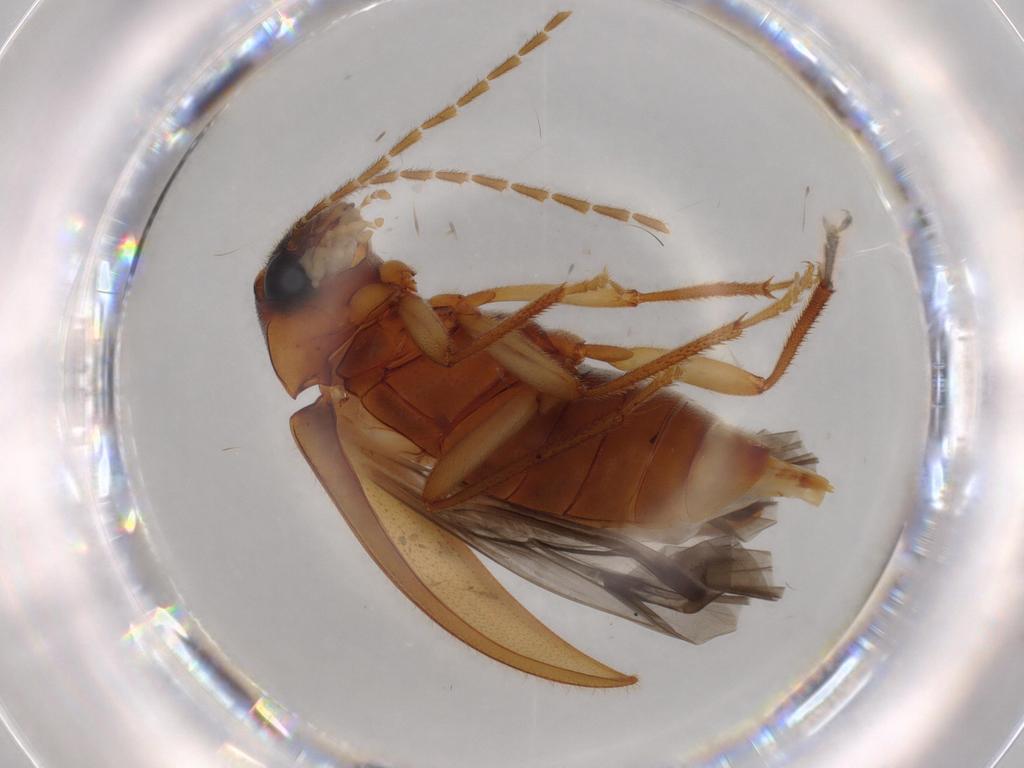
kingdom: Animalia
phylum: Arthropoda
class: Insecta
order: Coleoptera
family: Ptilodactylidae
